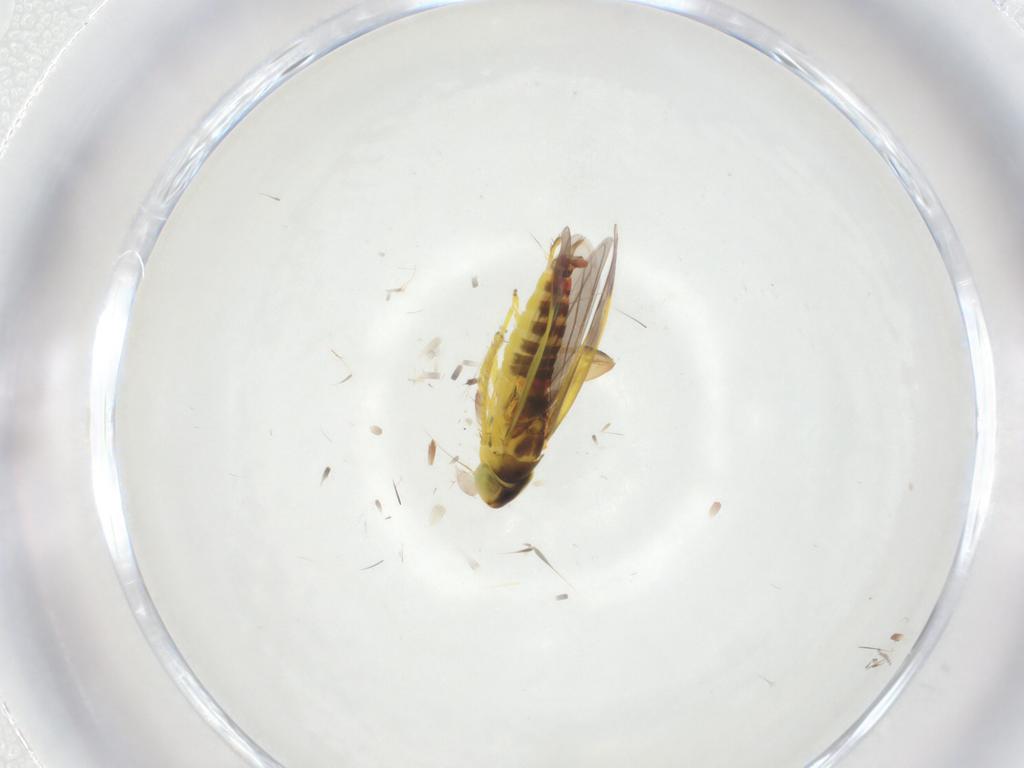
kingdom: Animalia
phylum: Arthropoda
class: Insecta
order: Hemiptera
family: Cicadellidae
